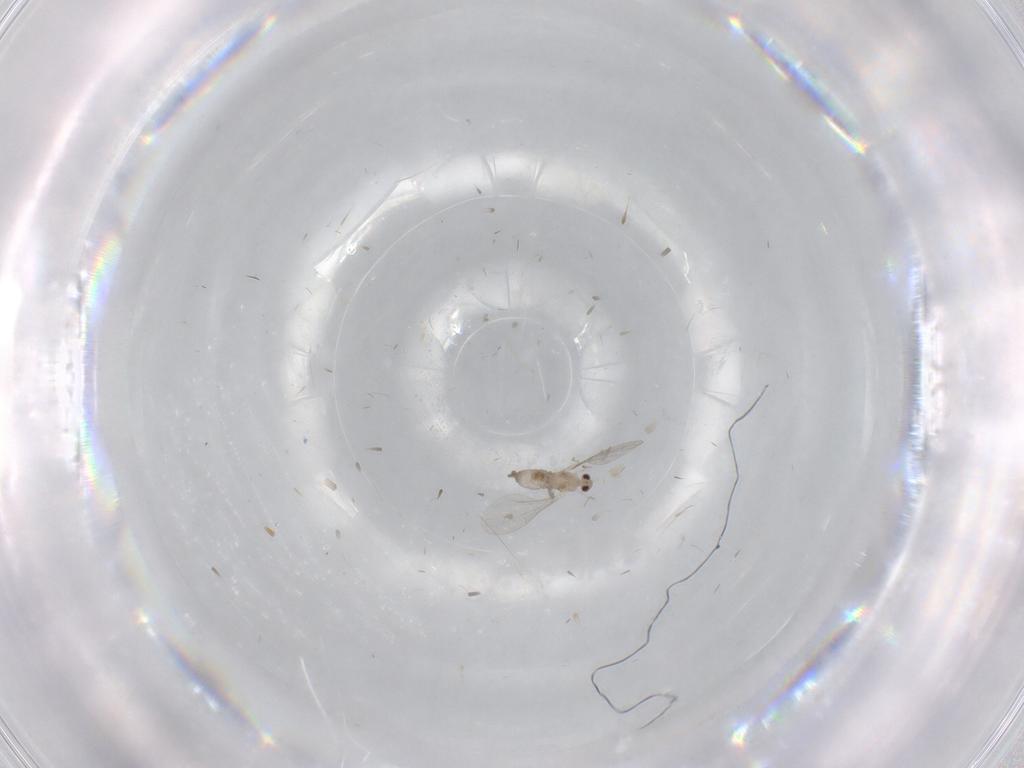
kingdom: Animalia
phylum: Arthropoda
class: Insecta
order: Diptera
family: Cecidomyiidae
